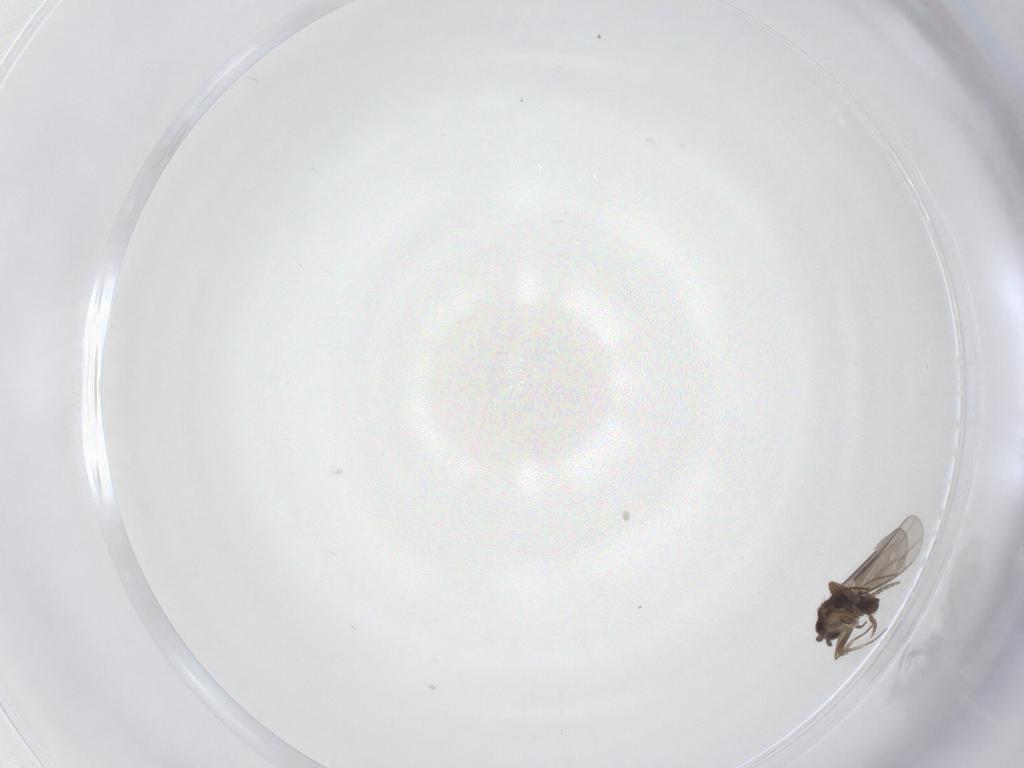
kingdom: Animalia
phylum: Arthropoda
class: Insecta
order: Diptera
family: Phoridae
